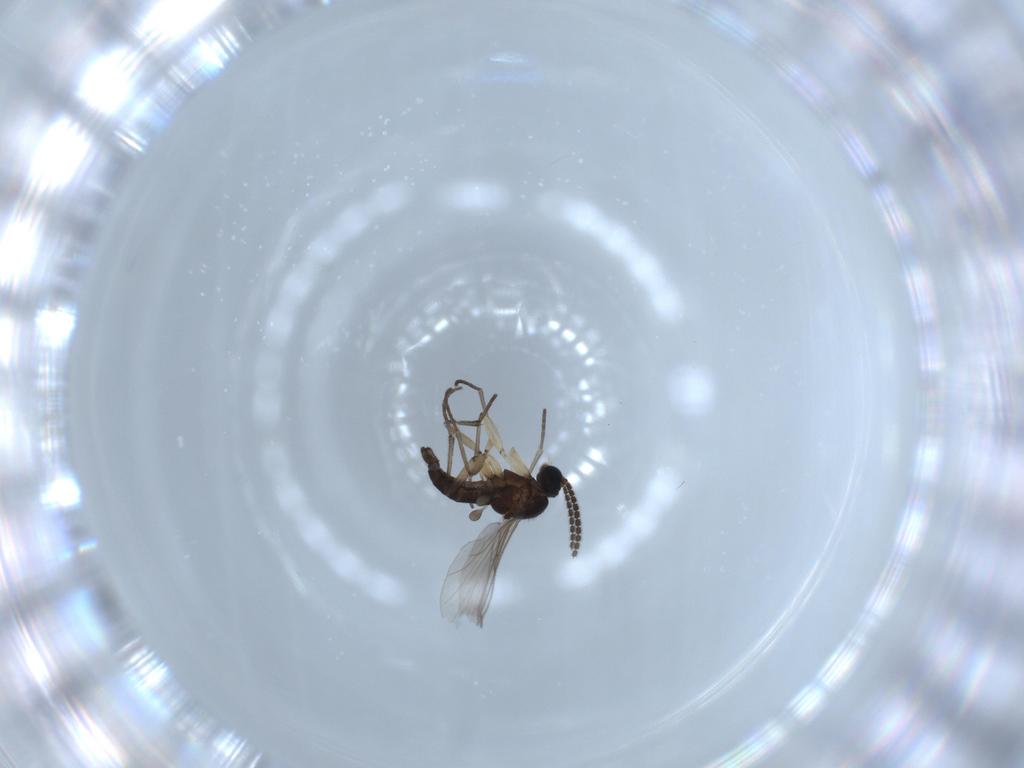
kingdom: Animalia
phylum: Arthropoda
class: Insecta
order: Diptera
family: Sciaridae
